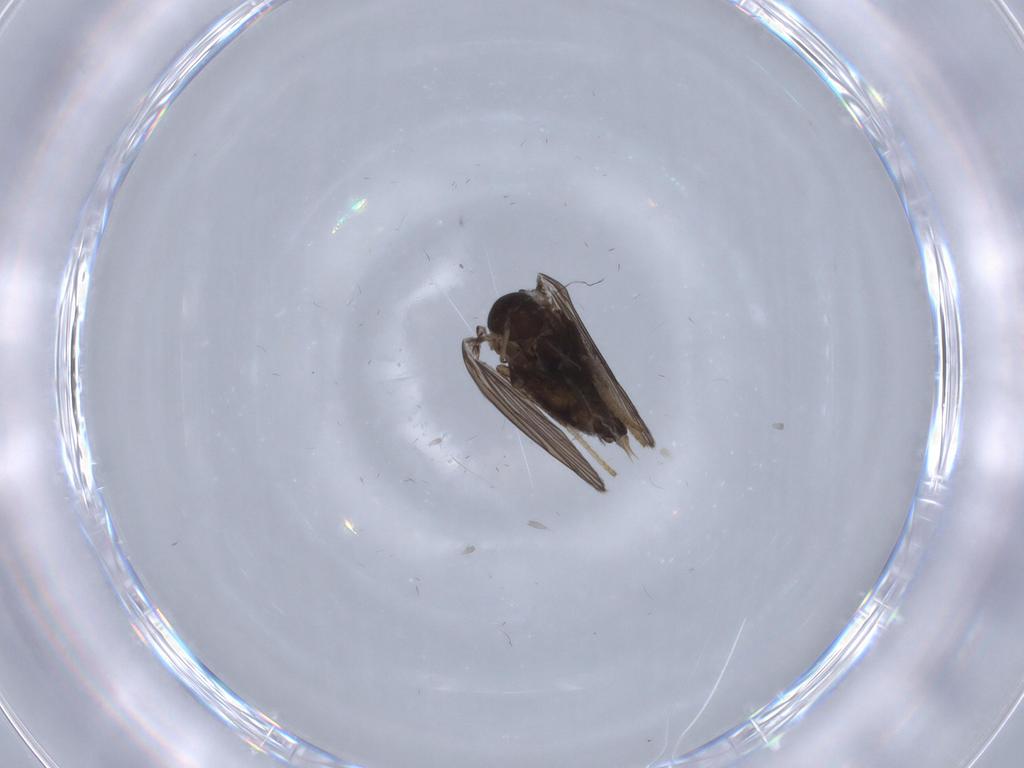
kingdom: Animalia
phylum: Arthropoda
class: Insecta
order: Diptera
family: Psychodidae
